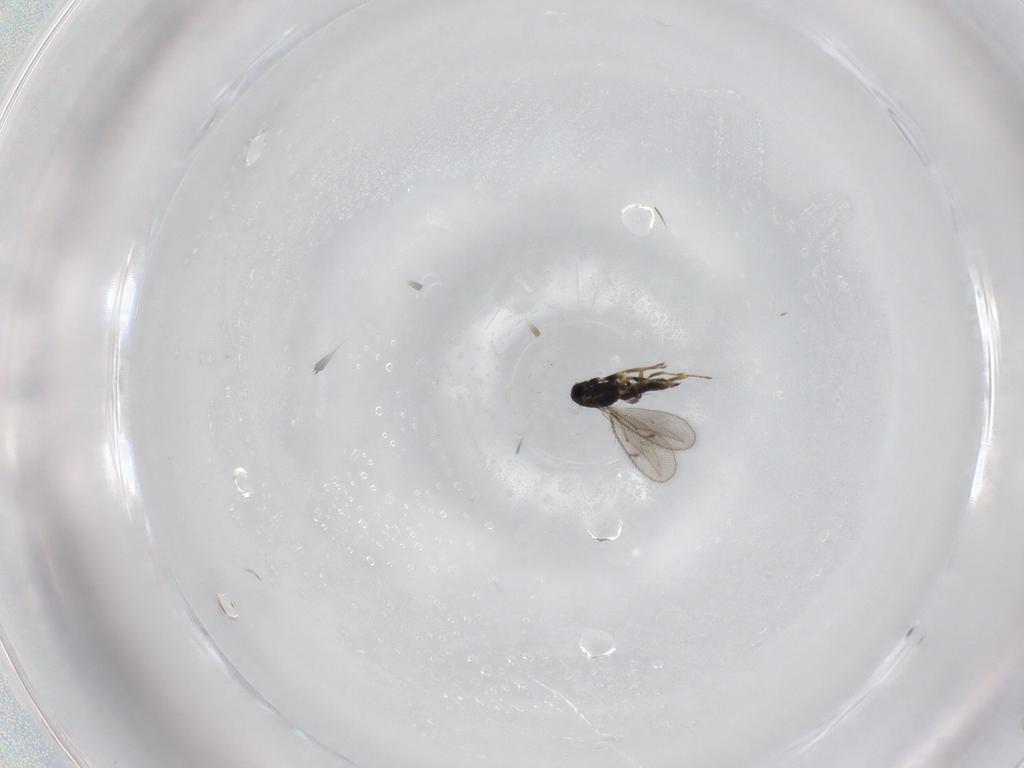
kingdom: Animalia
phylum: Arthropoda
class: Insecta
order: Hymenoptera
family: Eulophidae
